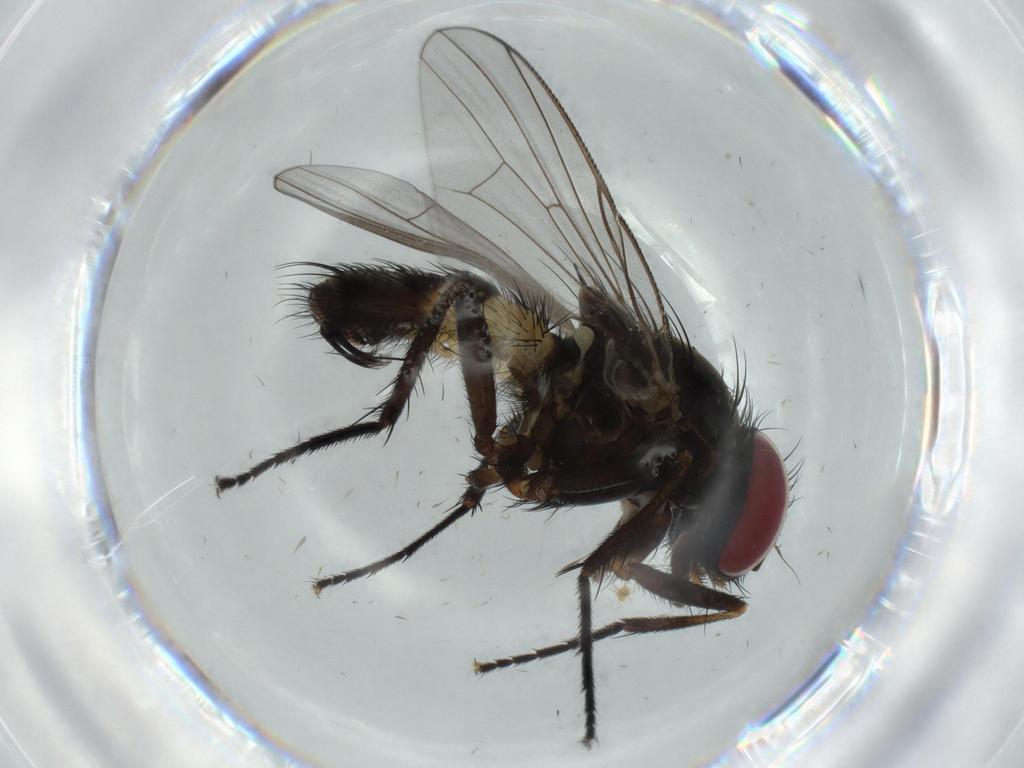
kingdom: Animalia
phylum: Arthropoda
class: Insecta
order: Diptera
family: Fannia
